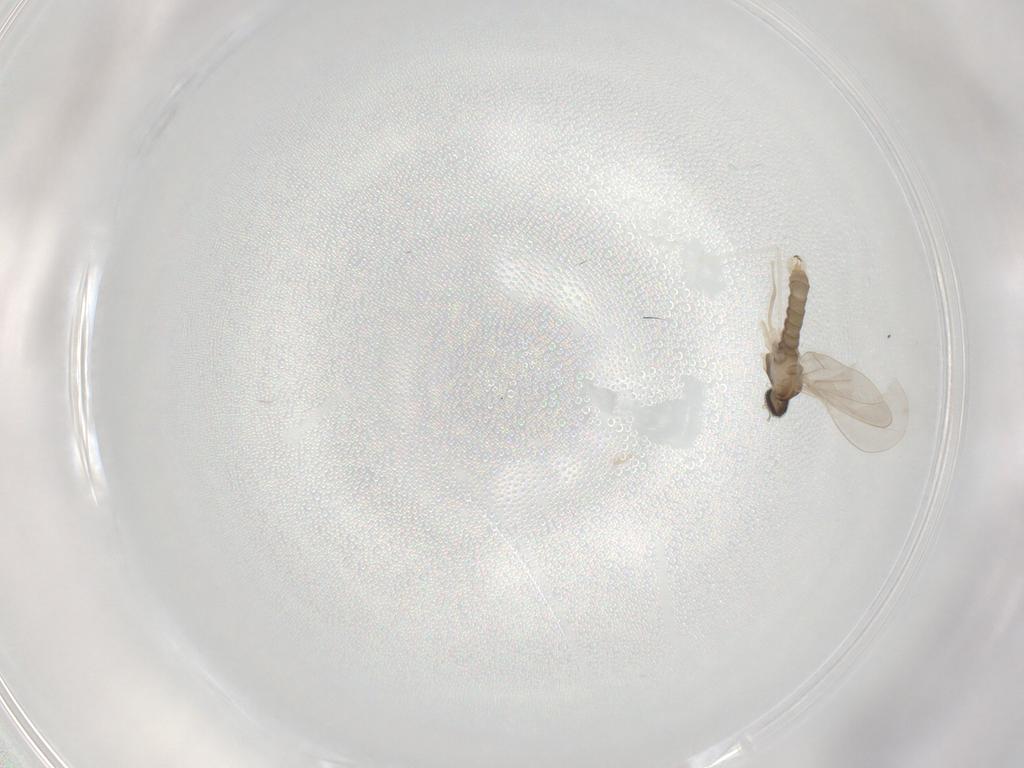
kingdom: Animalia
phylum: Arthropoda
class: Insecta
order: Diptera
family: Cecidomyiidae
